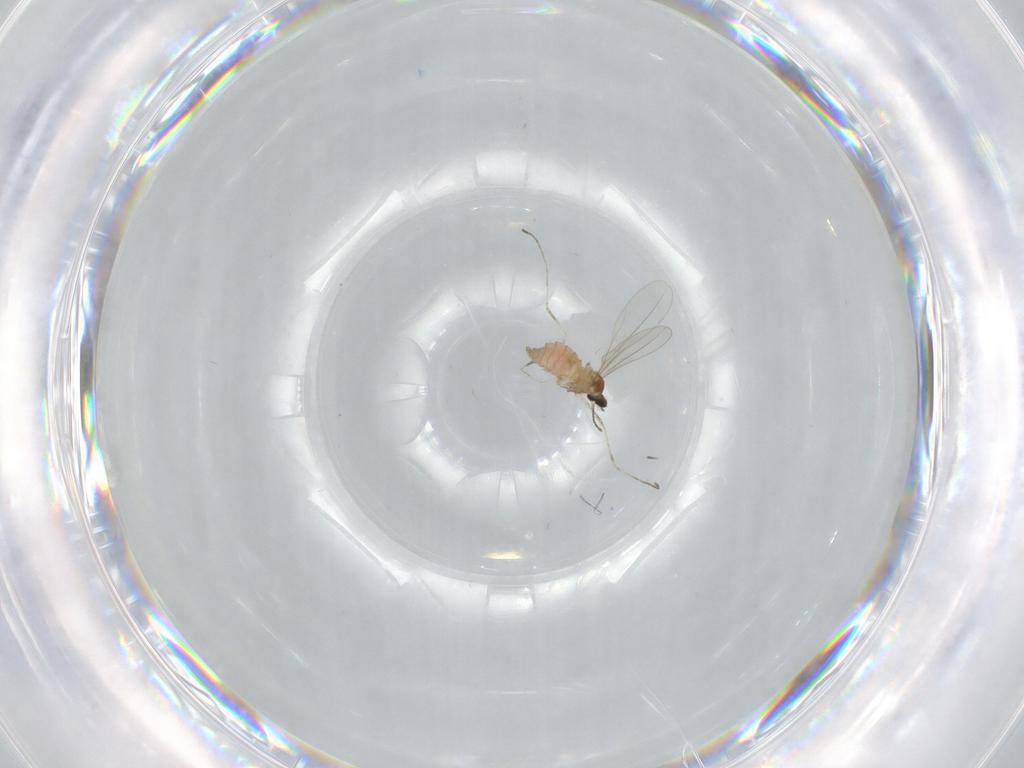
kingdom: Animalia
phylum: Arthropoda
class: Insecta
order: Diptera
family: Cecidomyiidae
